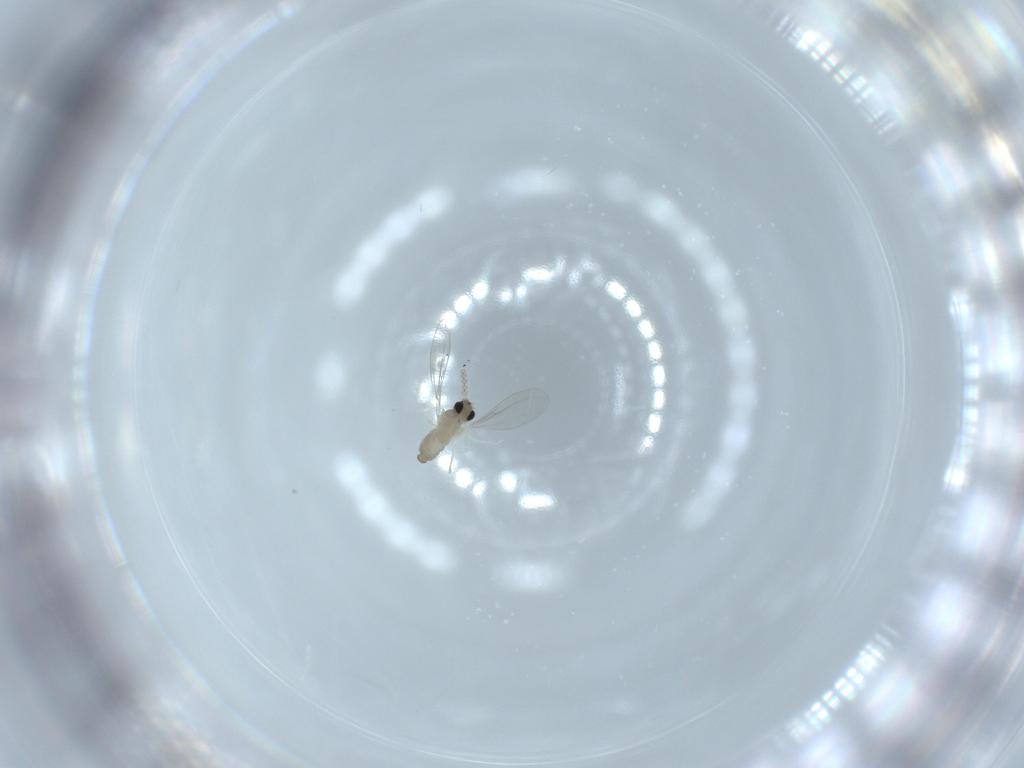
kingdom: Animalia
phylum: Arthropoda
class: Insecta
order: Diptera
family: Cecidomyiidae
